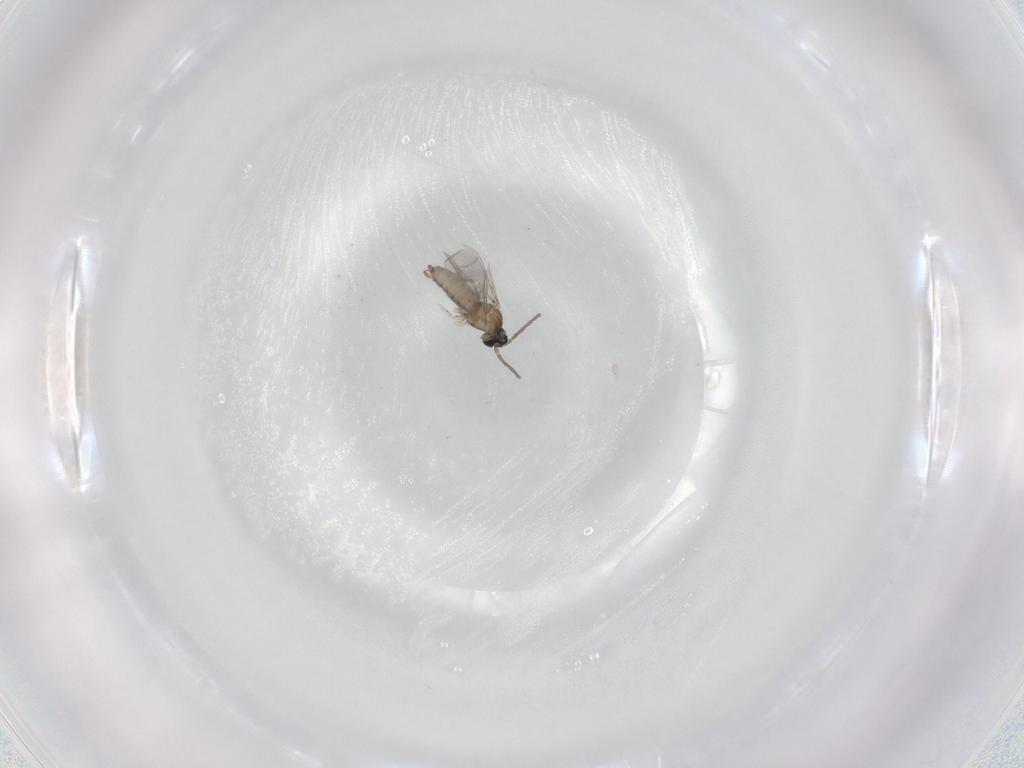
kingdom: Animalia
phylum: Arthropoda
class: Insecta
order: Diptera
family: Cecidomyiidae
